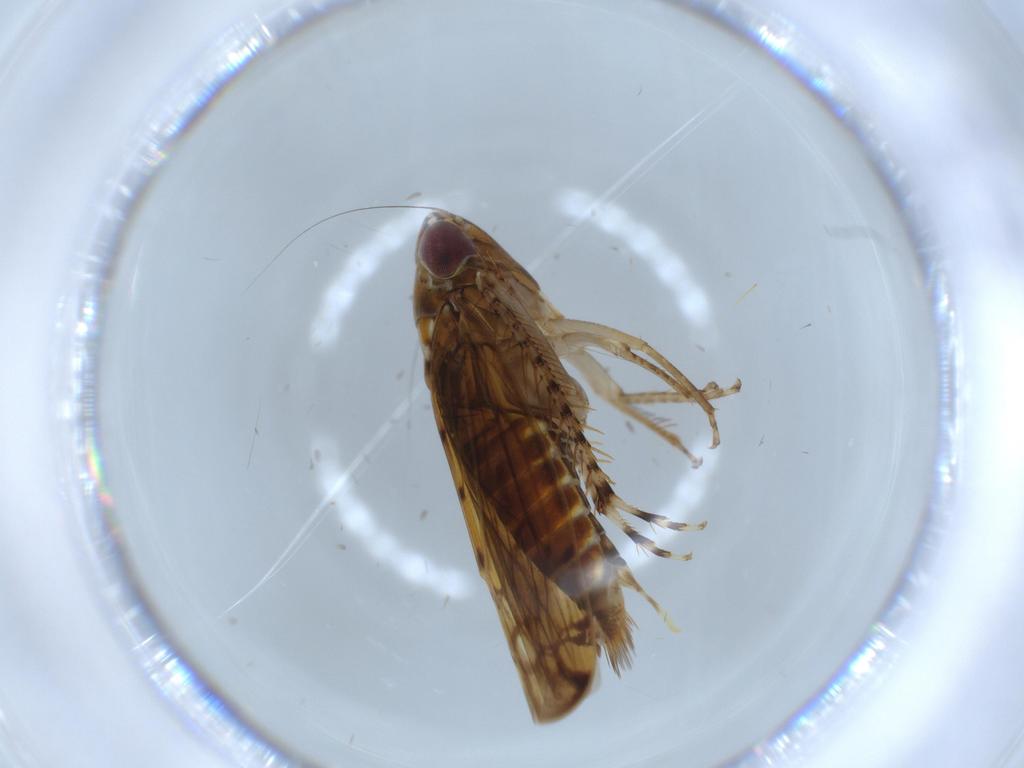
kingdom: Animalia
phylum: Arthropoda
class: Insecta
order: Hemiptera
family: Cicadellidae
